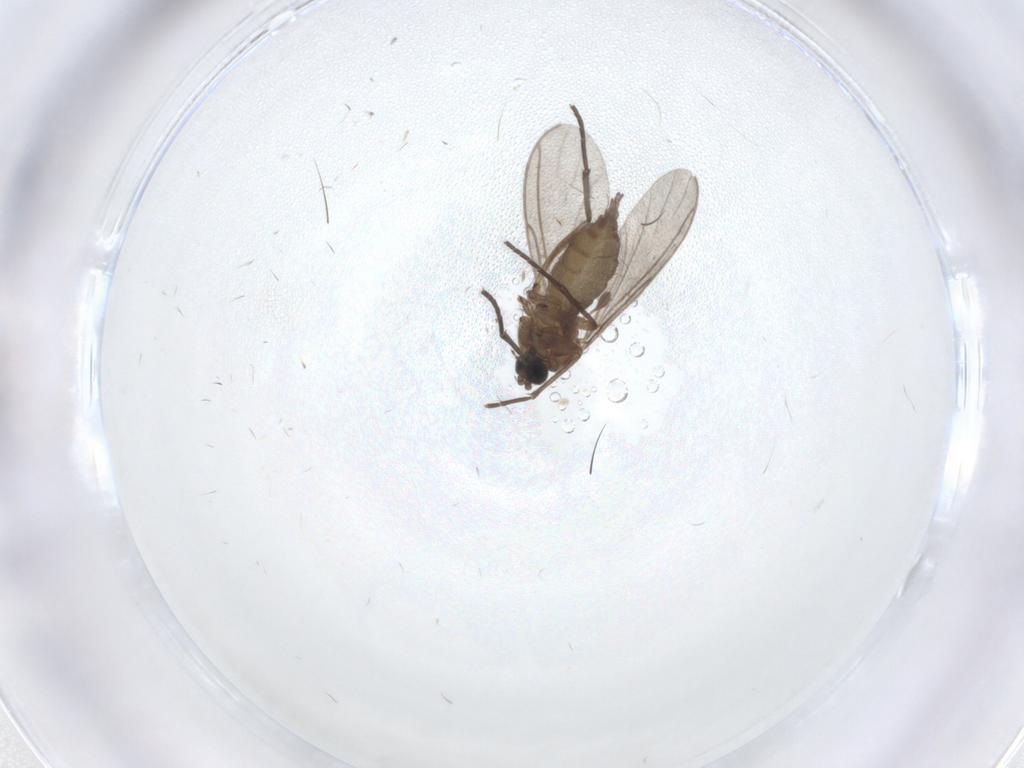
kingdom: Animalia
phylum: Arthropoda
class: Insecta
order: Diptera
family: Sciaridae
